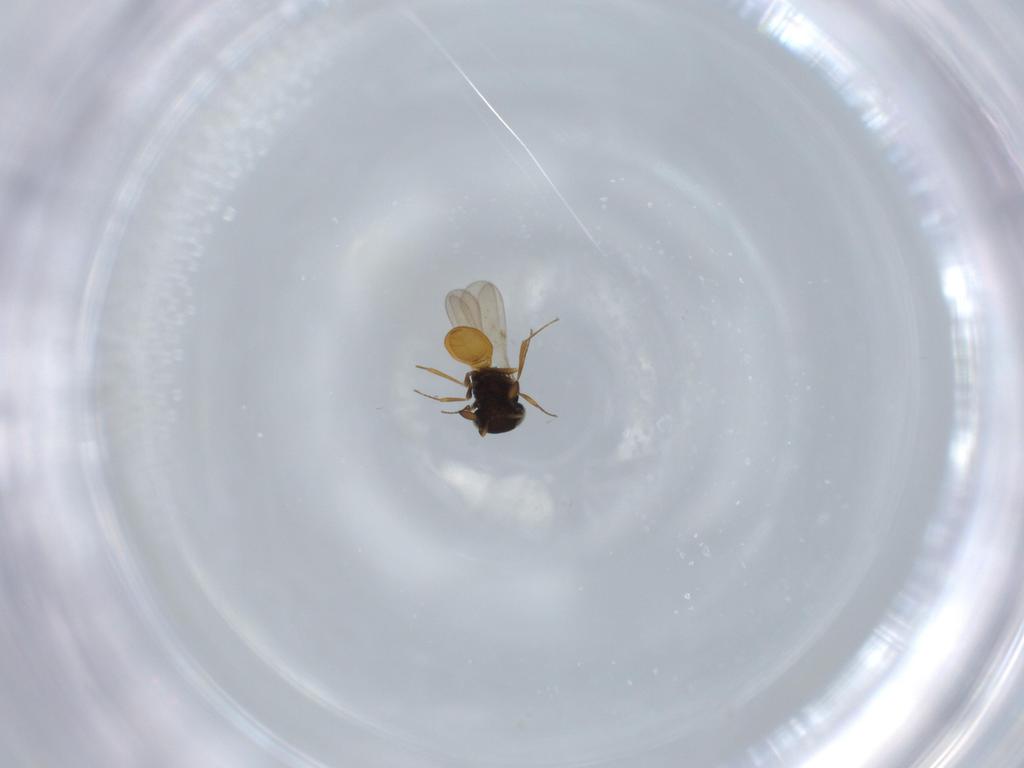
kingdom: Animalia
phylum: Arthropoda
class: Insecta
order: Hymenoptera
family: Scelionidae
